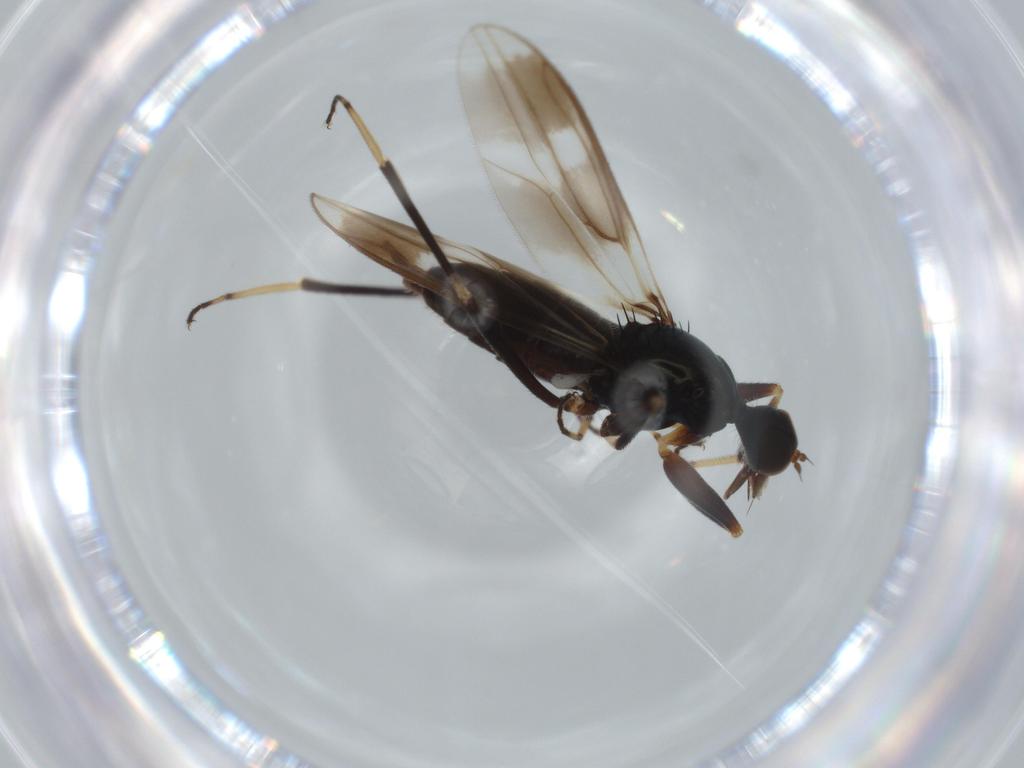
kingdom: Animalia
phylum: Arthropoda
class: Insecta
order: Diptera
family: Hybotidae
